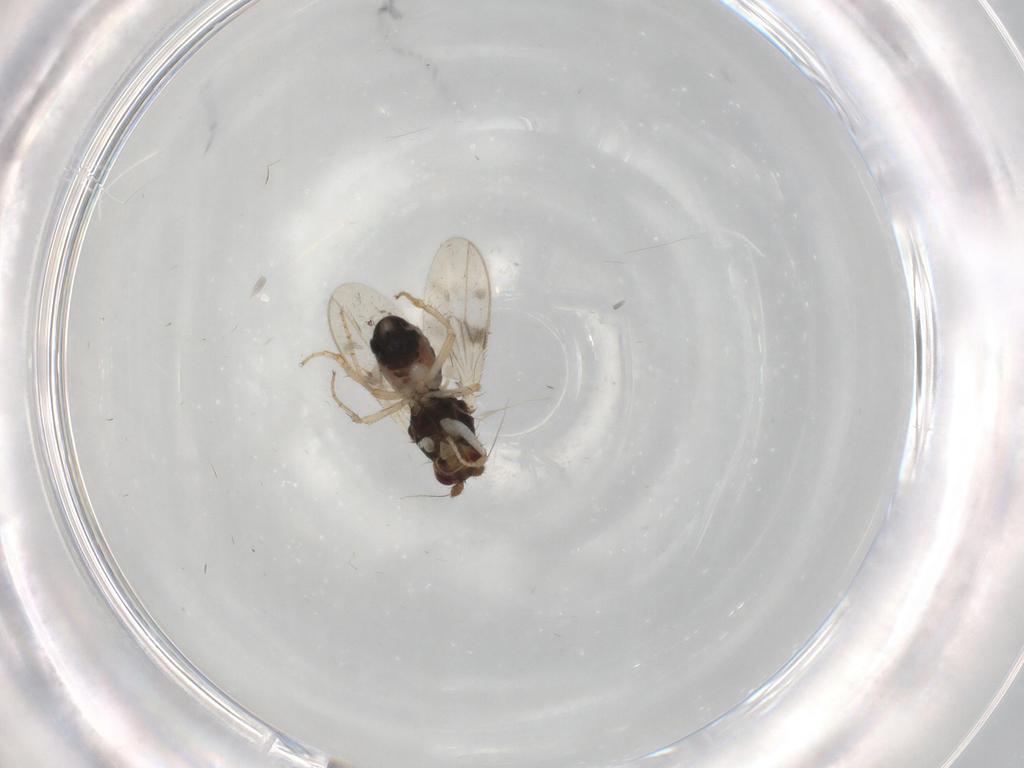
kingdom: Animalia
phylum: Arthropoda
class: Insecta
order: Diptera
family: Sphaeroceridae
